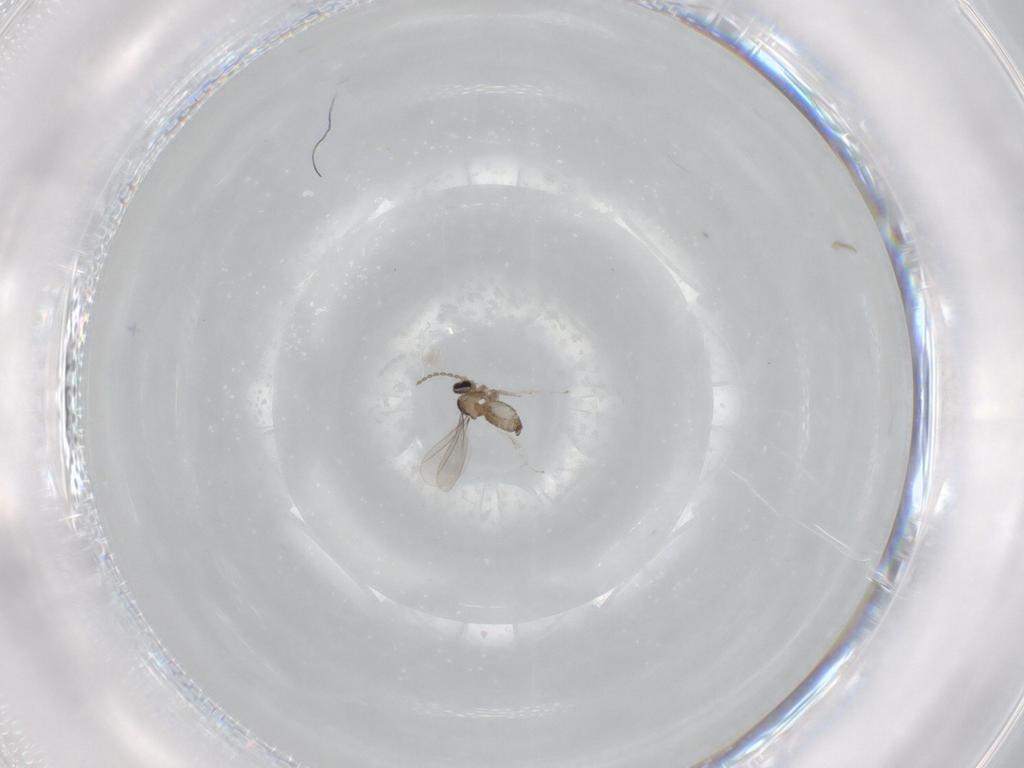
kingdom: Animalia
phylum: Arthropoda
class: Insecta
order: Diptera
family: Cecidomyiidae
